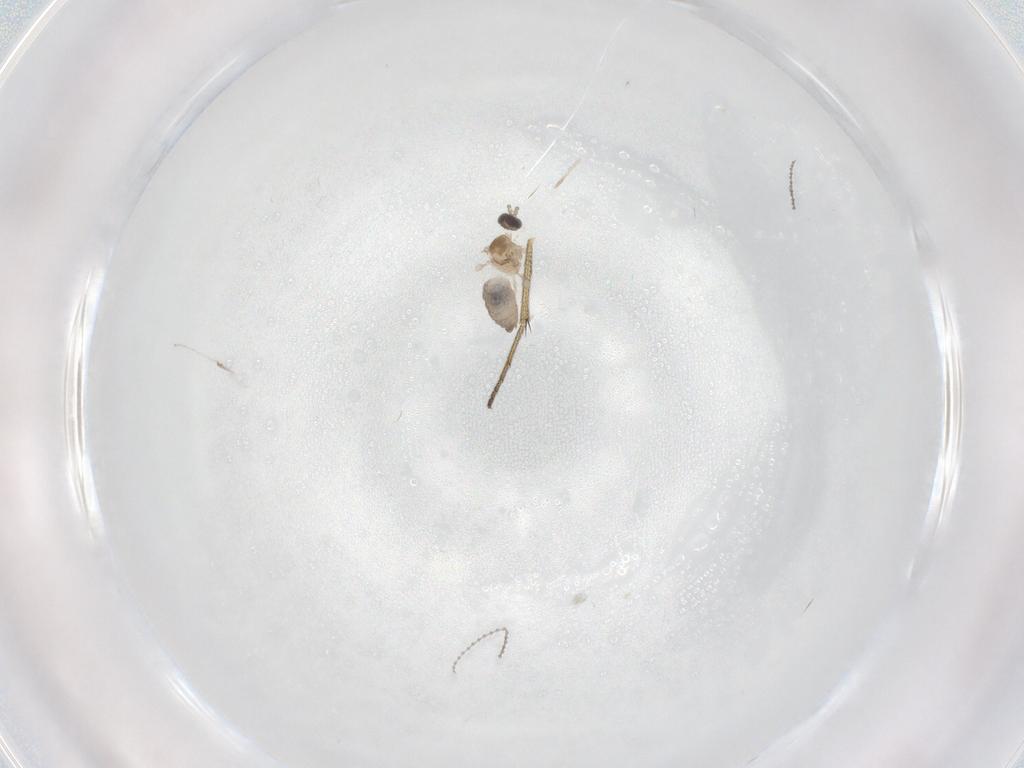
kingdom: Animalia
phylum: Arthropoda
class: Insecta
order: Diptera
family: Cecidomyiidae
